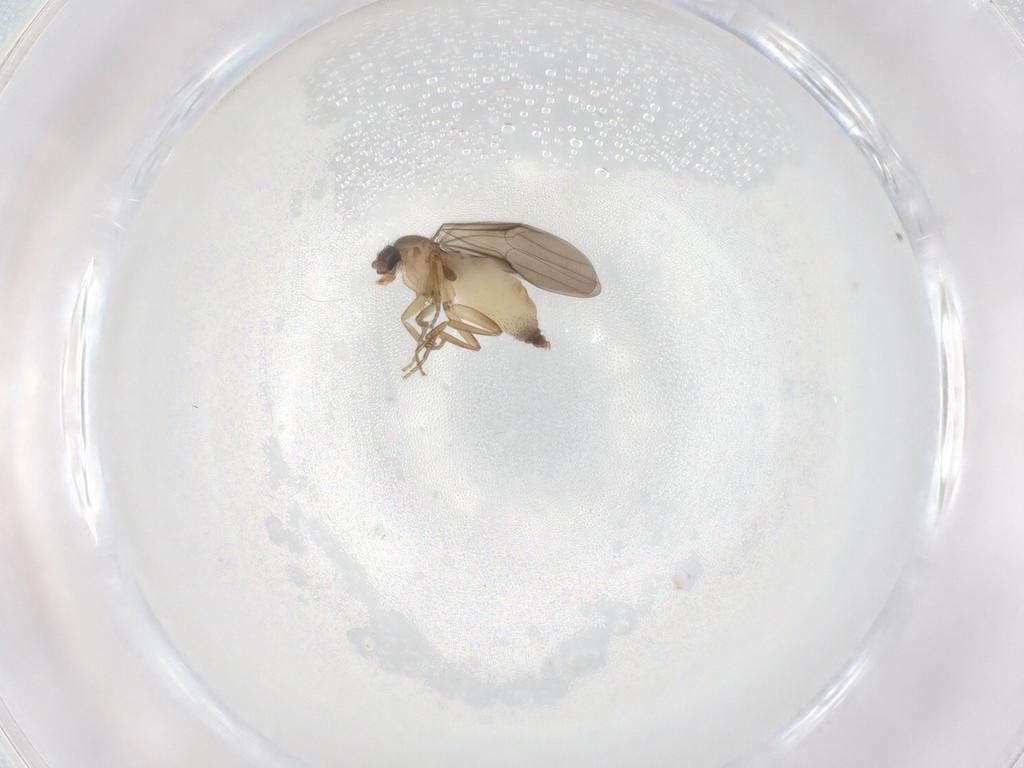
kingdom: Animalia
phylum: Arthropoda
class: Insecta
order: Diptera
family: Phoridae
